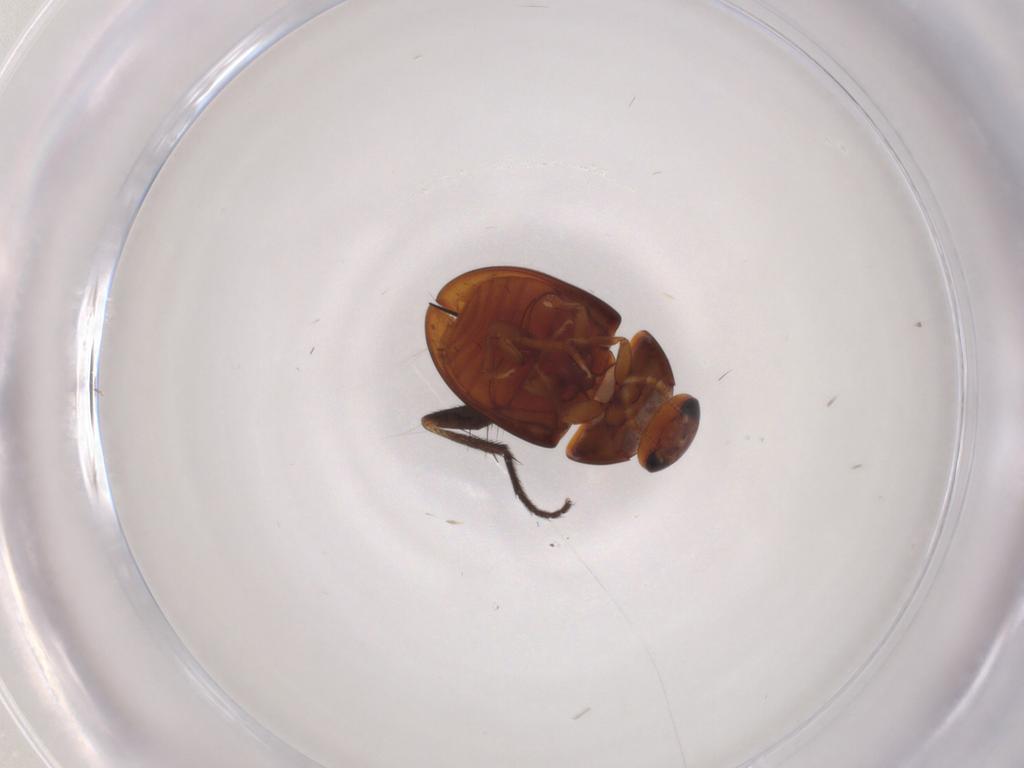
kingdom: Animalia
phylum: Arthropoda
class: Insecta
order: Coleoptera
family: Phalacridae
